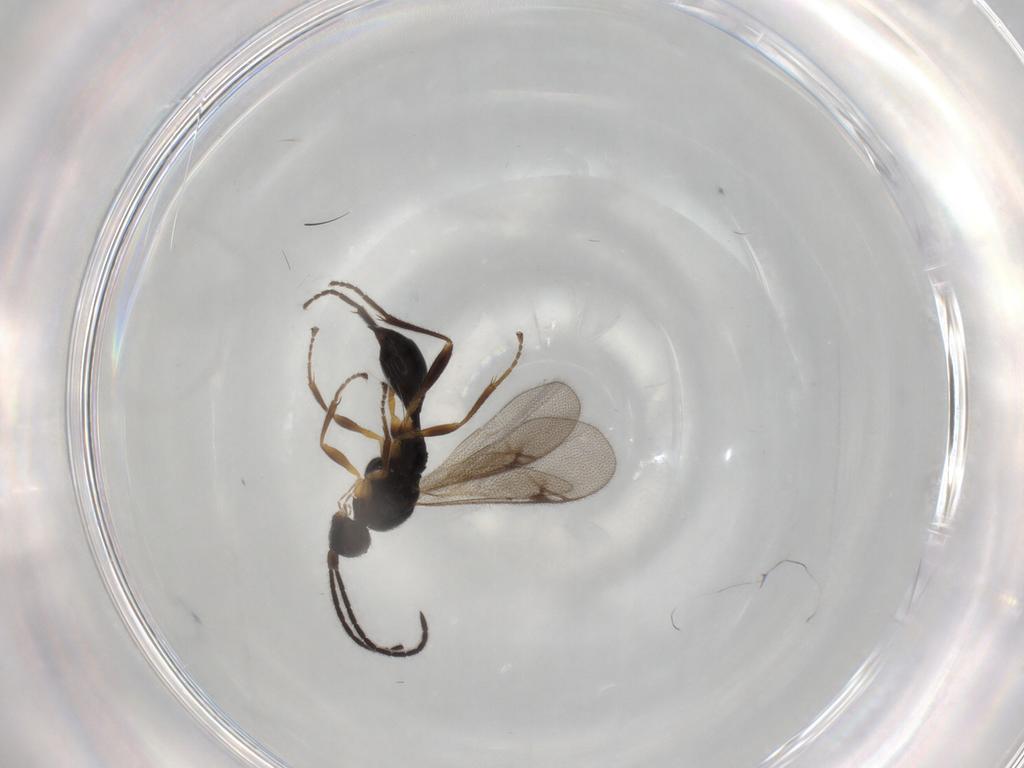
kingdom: Animalia
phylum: Arthropoda
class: Insecta
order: Hymenoptera
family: Proctotrupidae
